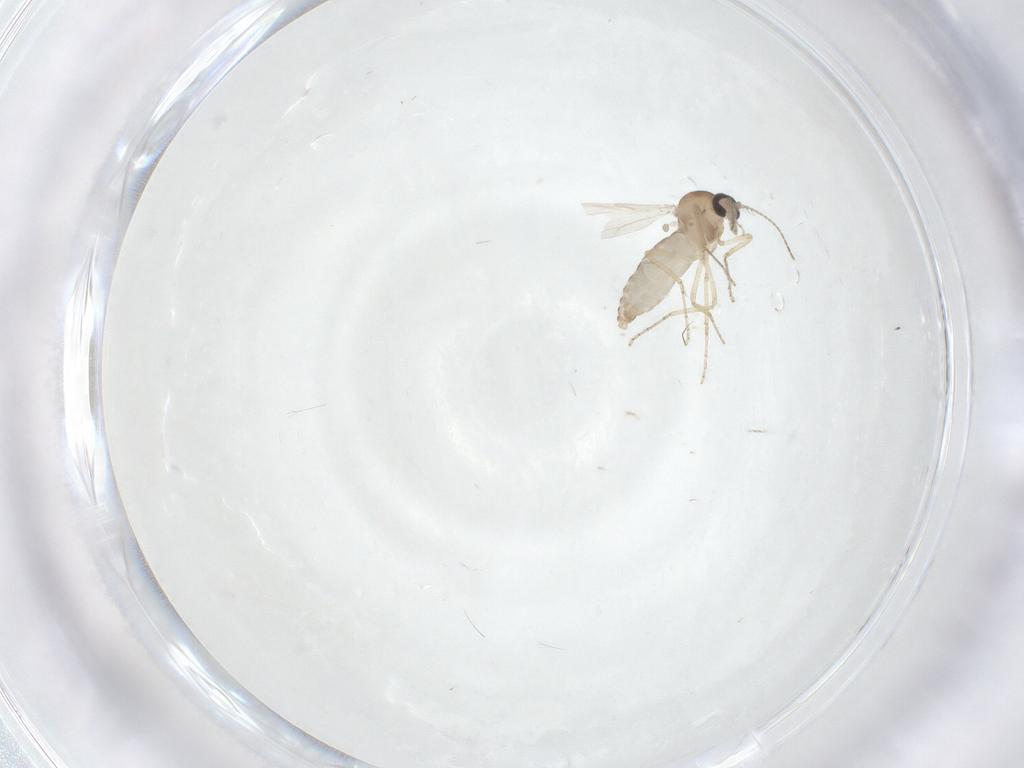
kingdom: Animalia
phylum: Arthropoda
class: Insecta
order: Diptera
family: Ceratopogonidae
